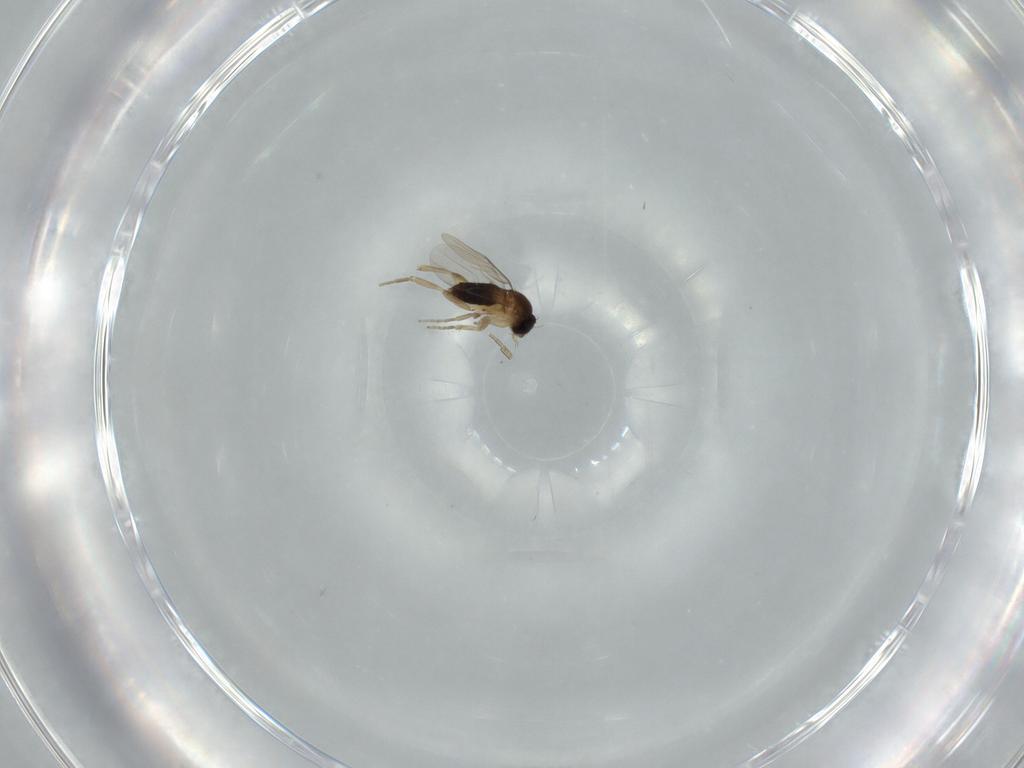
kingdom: Animalia
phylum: Arthropoda
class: Insecta
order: Diptera
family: Phoridae
